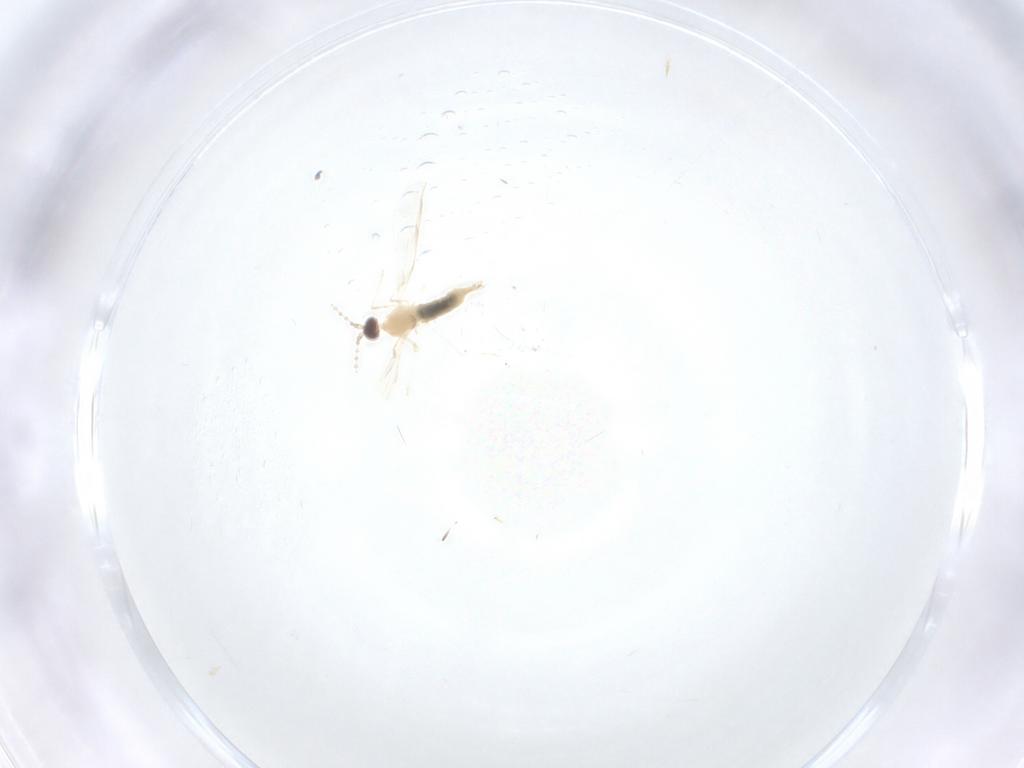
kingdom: Animalia
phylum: Arthropoda
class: Insecta
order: Diptera
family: Cecidomyiidae
